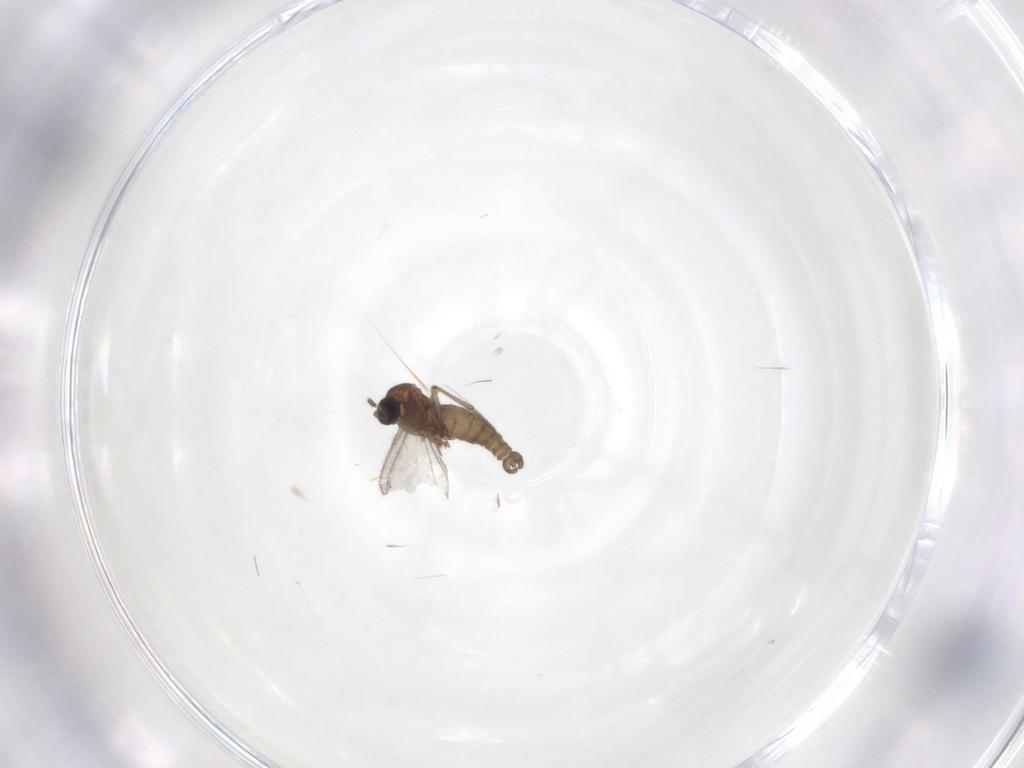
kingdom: Animalia
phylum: Arthropoda
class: Insecta
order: Diptera
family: Sciaridae
